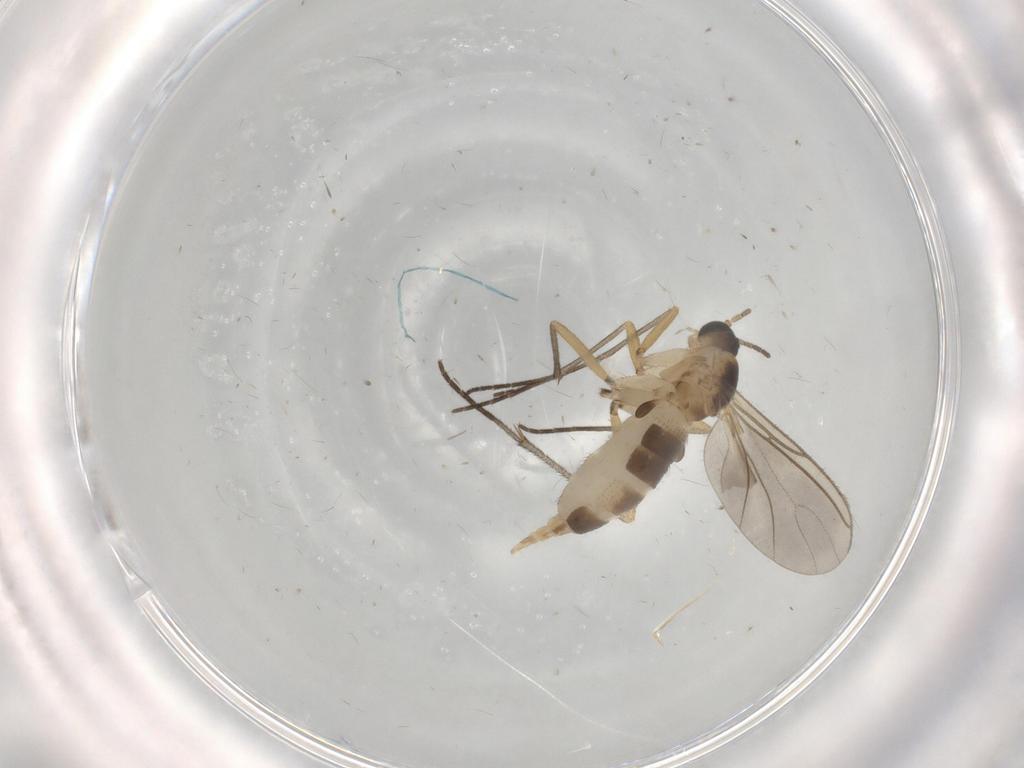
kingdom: Animalia
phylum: Arthropoda
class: Insecta
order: Diptera
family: Sciaridae
